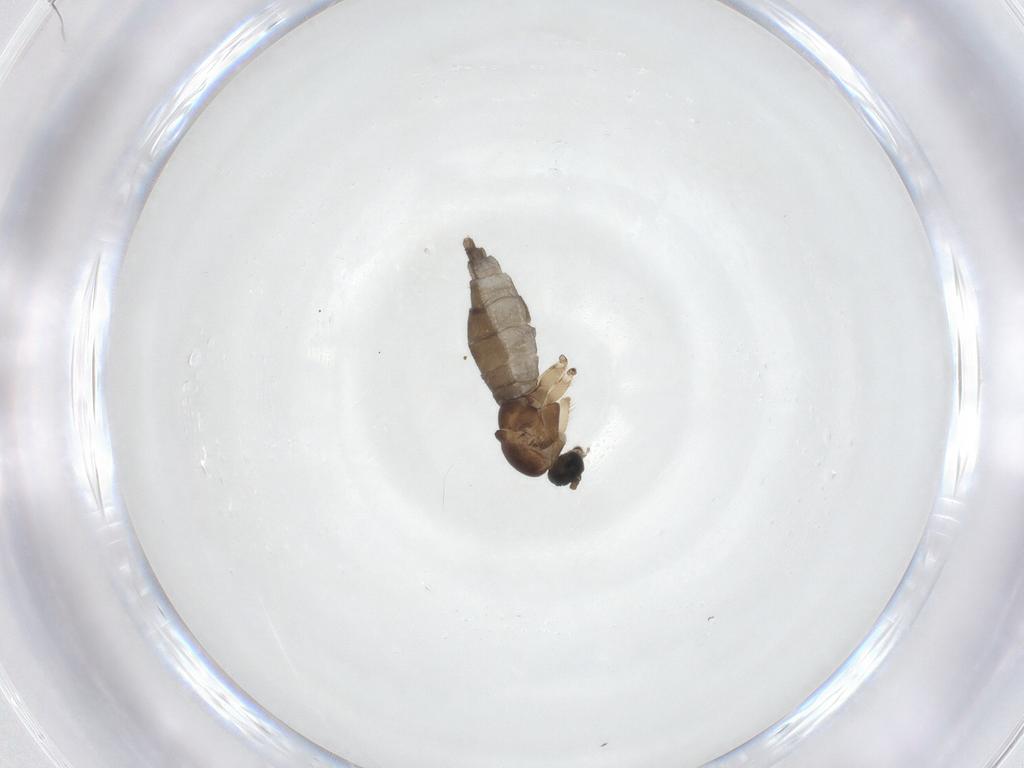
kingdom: Animalia
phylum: Arthropoda
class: Insecta
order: Diptera
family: Sciaridae
